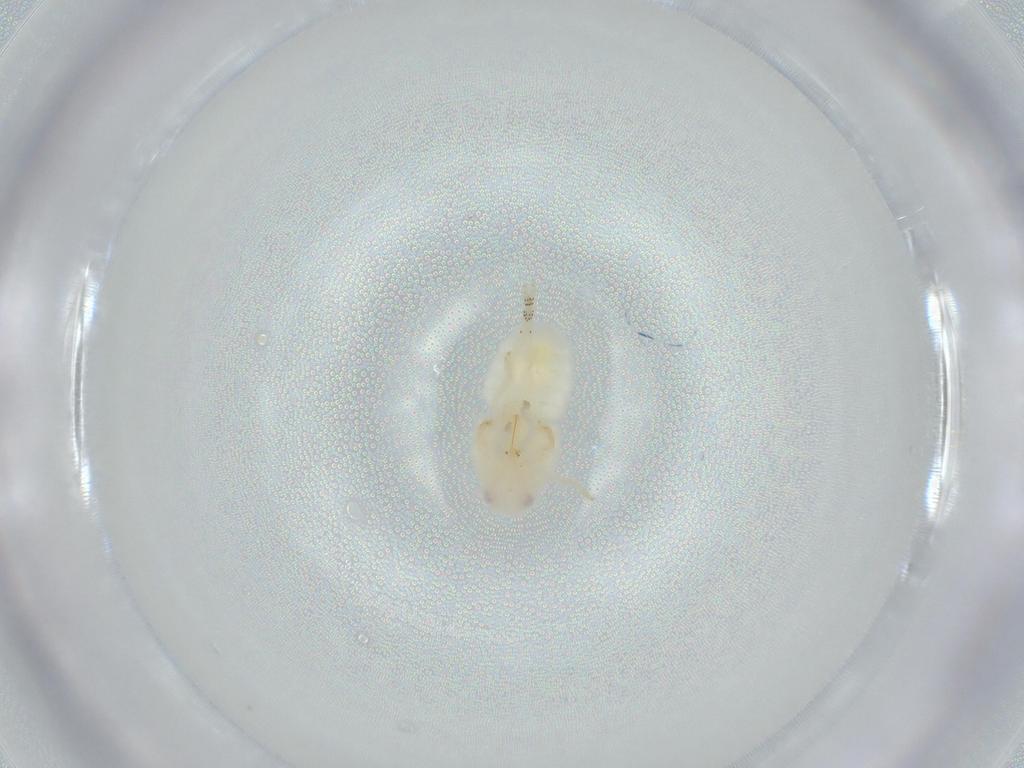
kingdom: Animalia
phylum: Arthropoda
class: Insecta
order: Hemiptera
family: Flatidae
